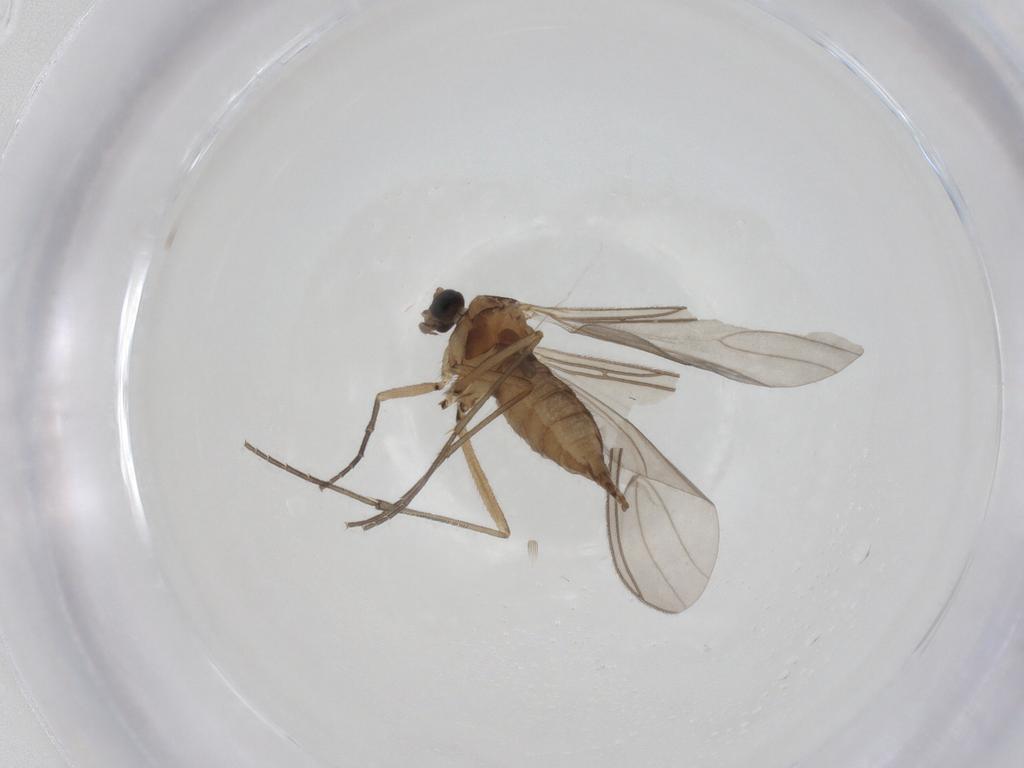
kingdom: Animalia
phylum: Arthropoda
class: Insecta
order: Diptera
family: Sciaridae
